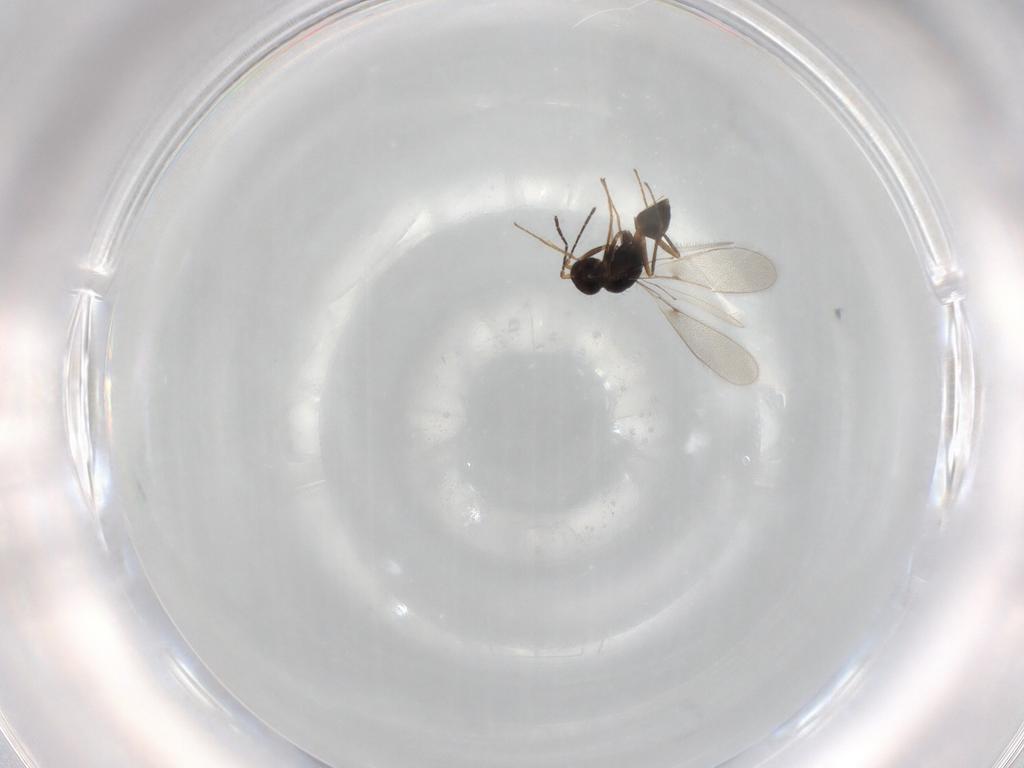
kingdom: Animalia
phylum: Arthropoda
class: Insecta
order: Hymenoptera
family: Mymaridae
